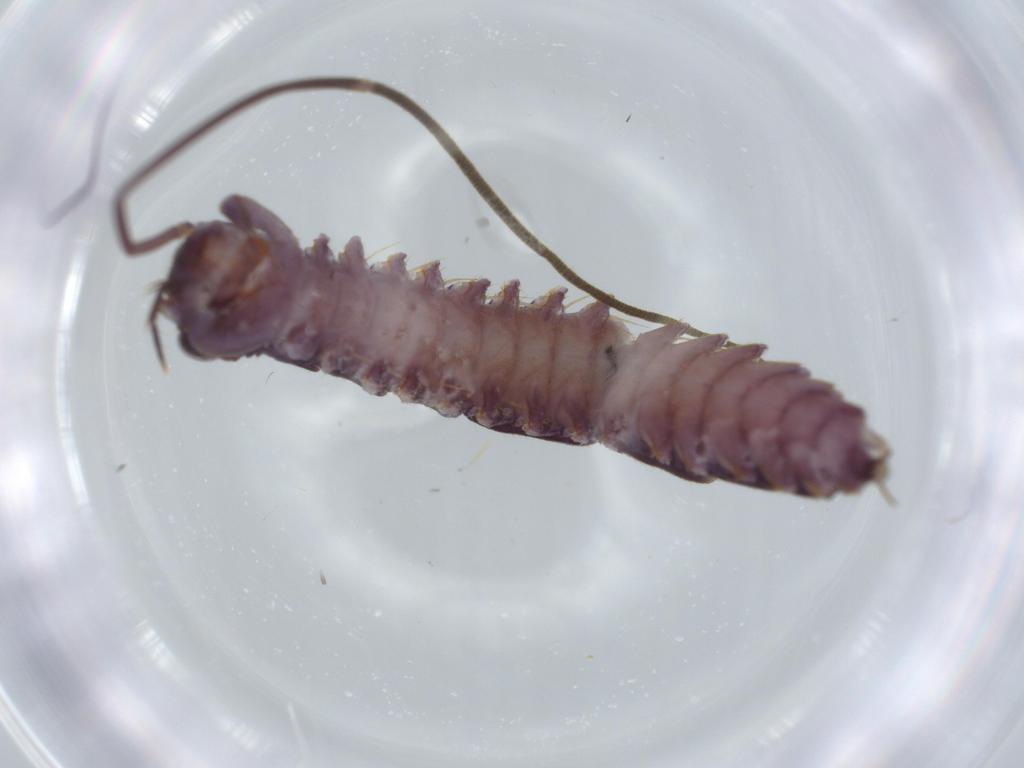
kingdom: Animalia
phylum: Arthropoda
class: Chilopoda
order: Scutigeromorpha
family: Scutigeridae
